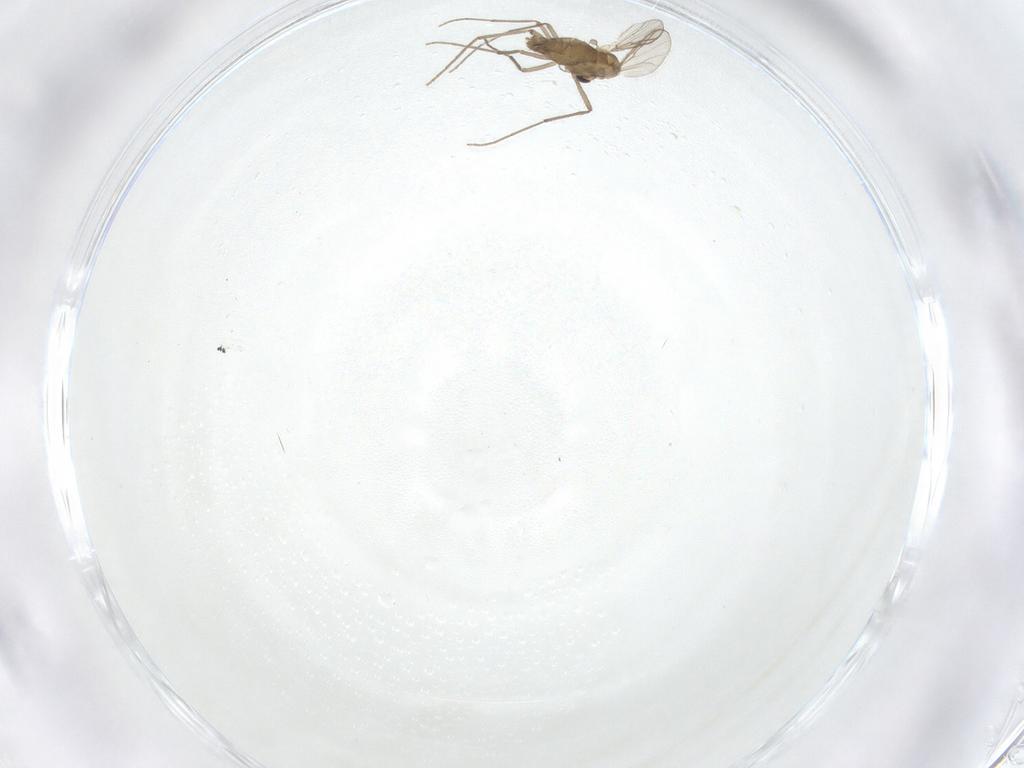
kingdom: Animalia
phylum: Arthropoda
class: Insecta
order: Diptera
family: Chironomidae
